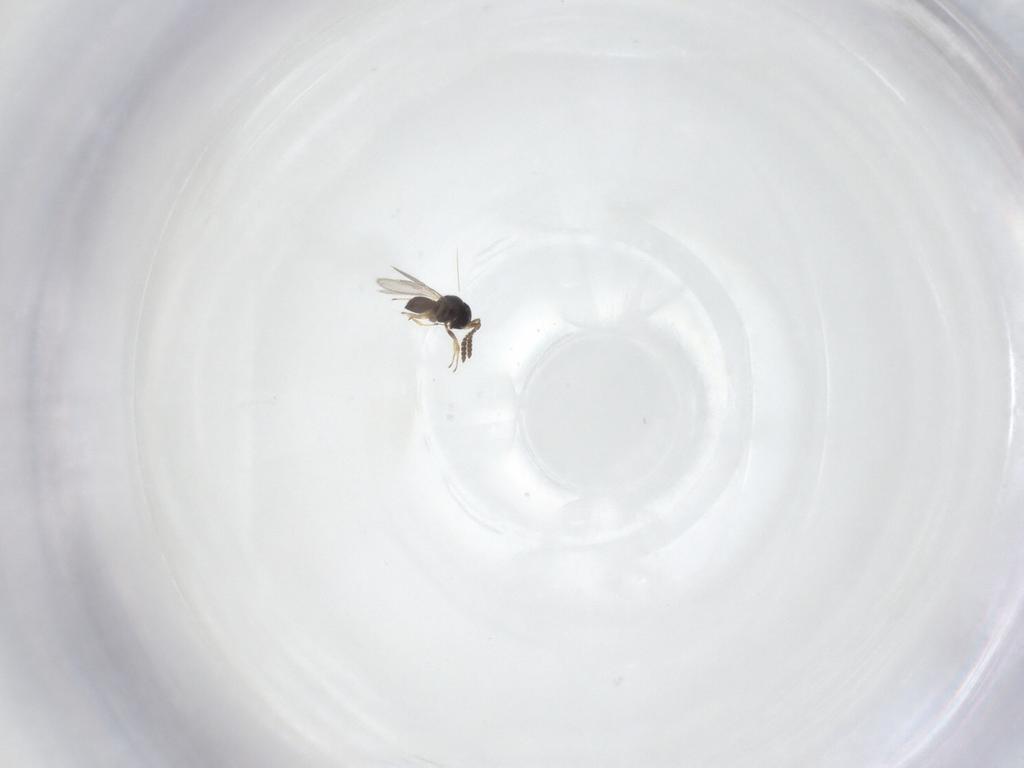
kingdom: Animalia
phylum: Arthropoda
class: Insecta
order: Hymenoptera
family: Scelionidae
